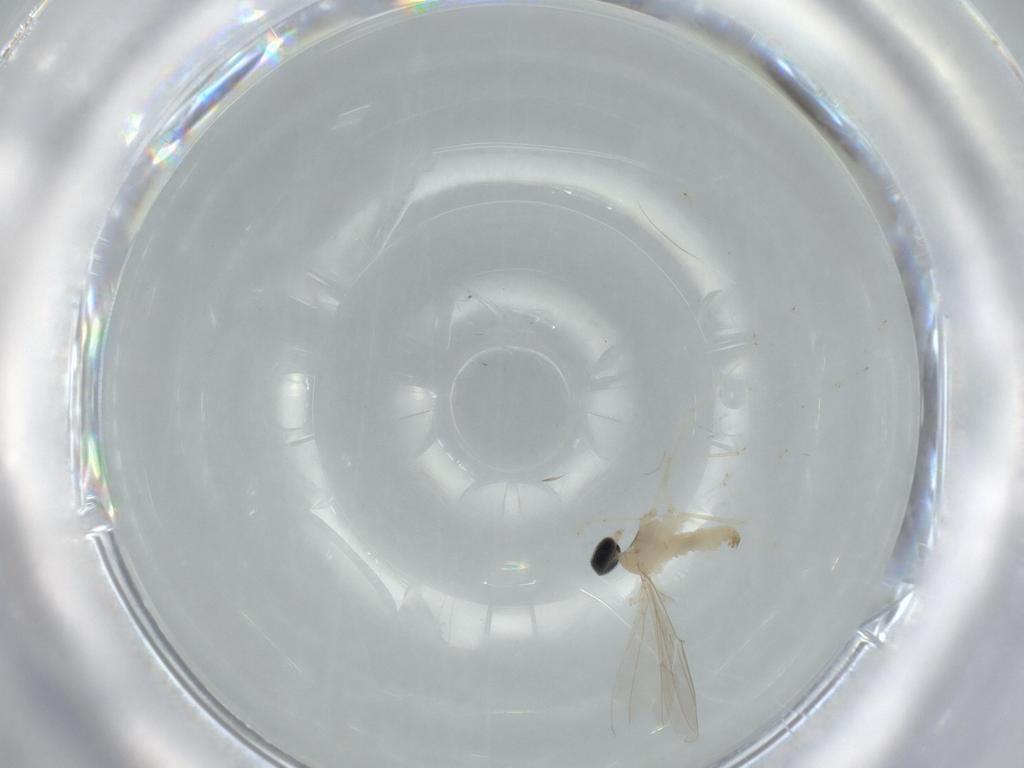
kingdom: Animalia
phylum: Arthropoda
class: Insecta
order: Diptera
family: Cecidomyiidae
